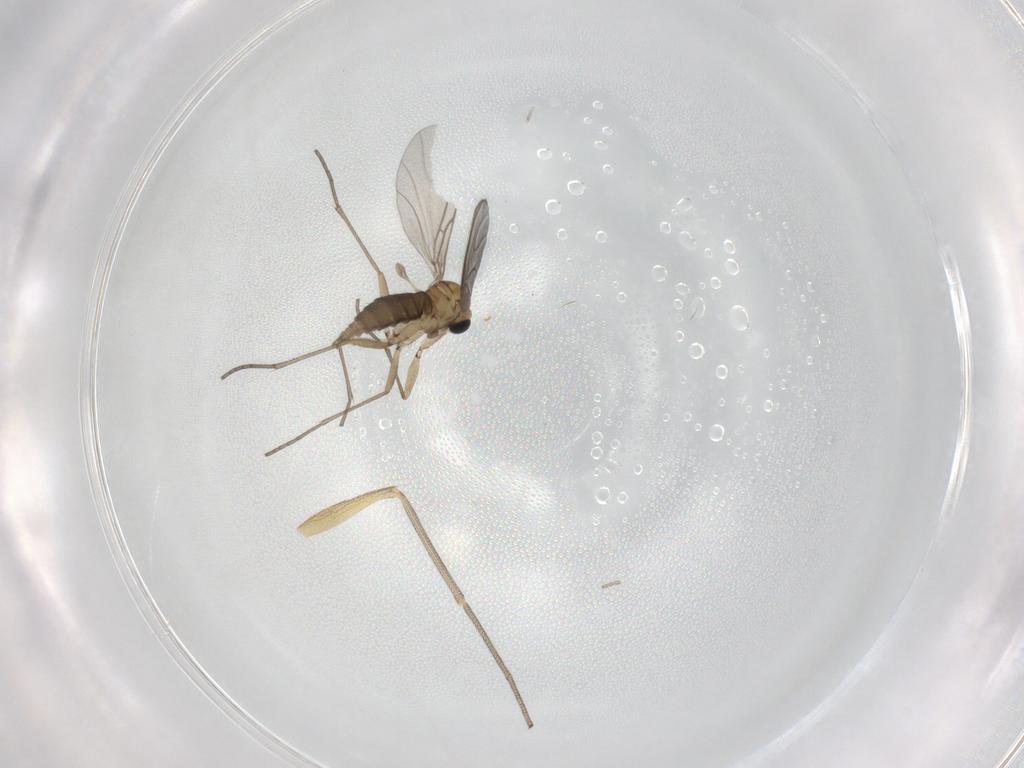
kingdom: Animalia
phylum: Arthropoda
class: Insecta
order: Diptera
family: Sciaridae
